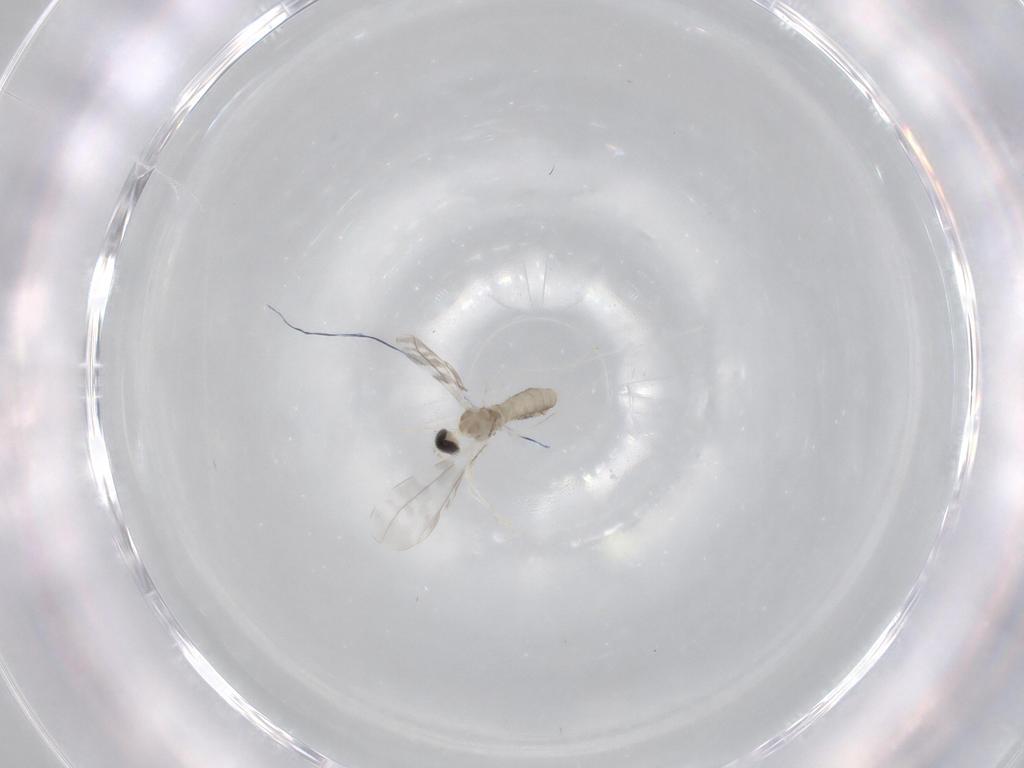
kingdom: Animalia
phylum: Arthropoda
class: Insecta
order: Diptera
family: Cecidomyiidae
